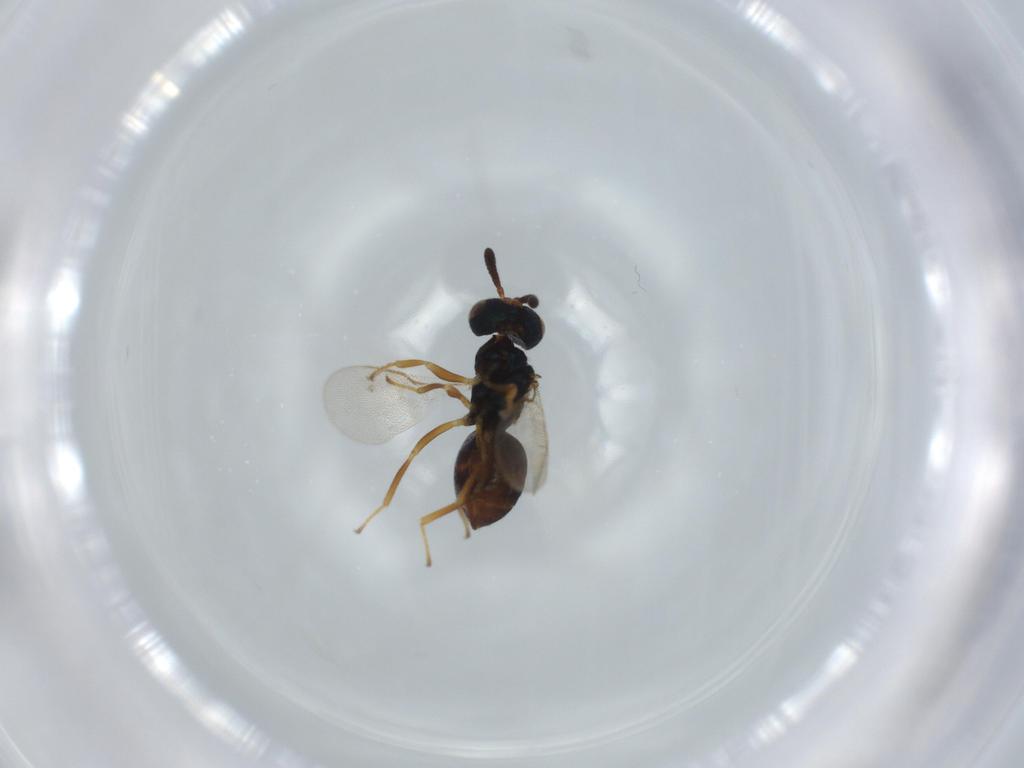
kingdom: Animalia
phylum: Arthropoda
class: Insecta
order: Hymenoptera
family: Pteromalidae
